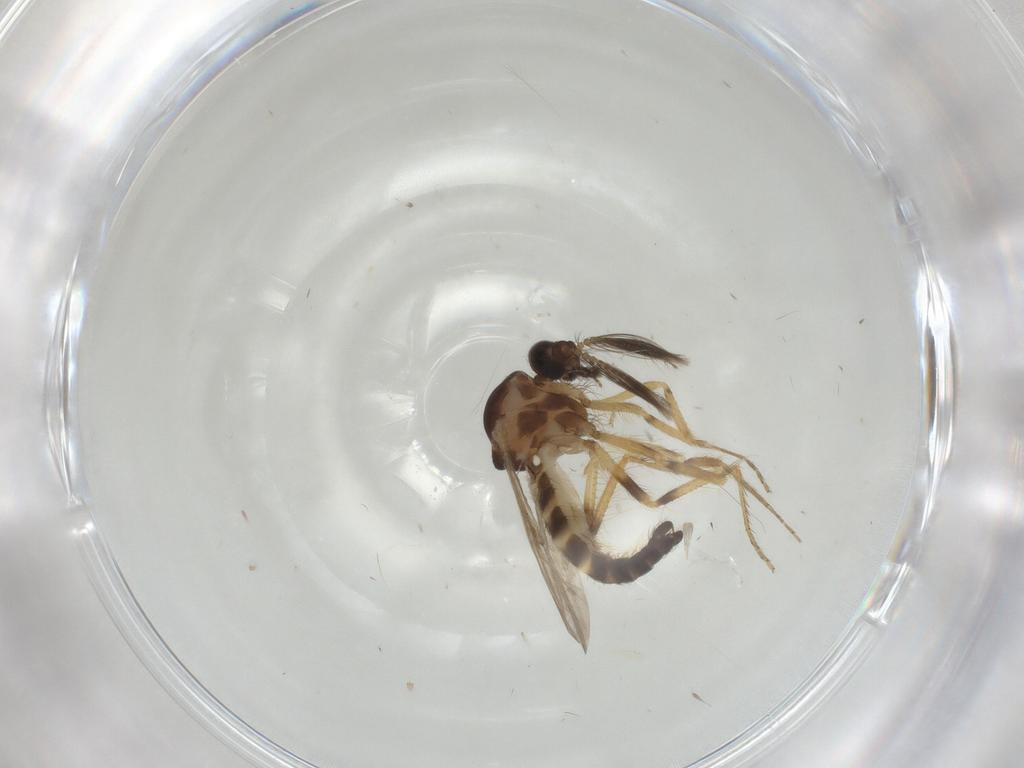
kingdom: Animalia
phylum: Arthropoda
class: Insecta
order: Diptera
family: Ceratopogonidae
